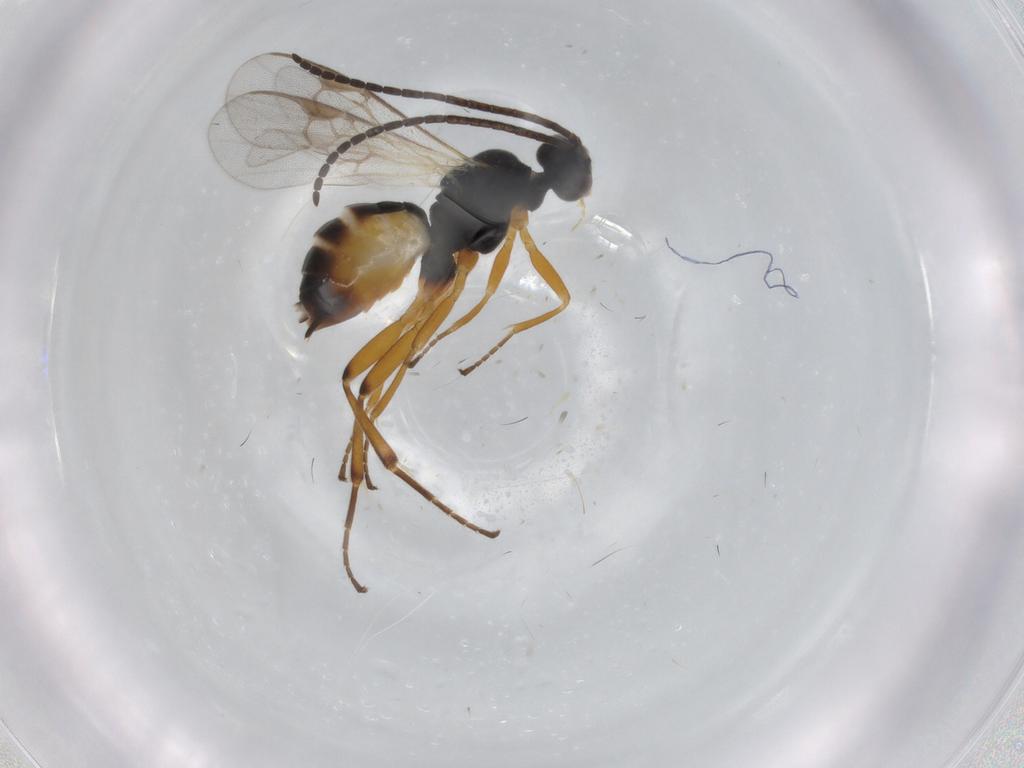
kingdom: Animalia
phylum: Arthropoda
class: Insecta
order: Hymenoptera
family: Braconidae
